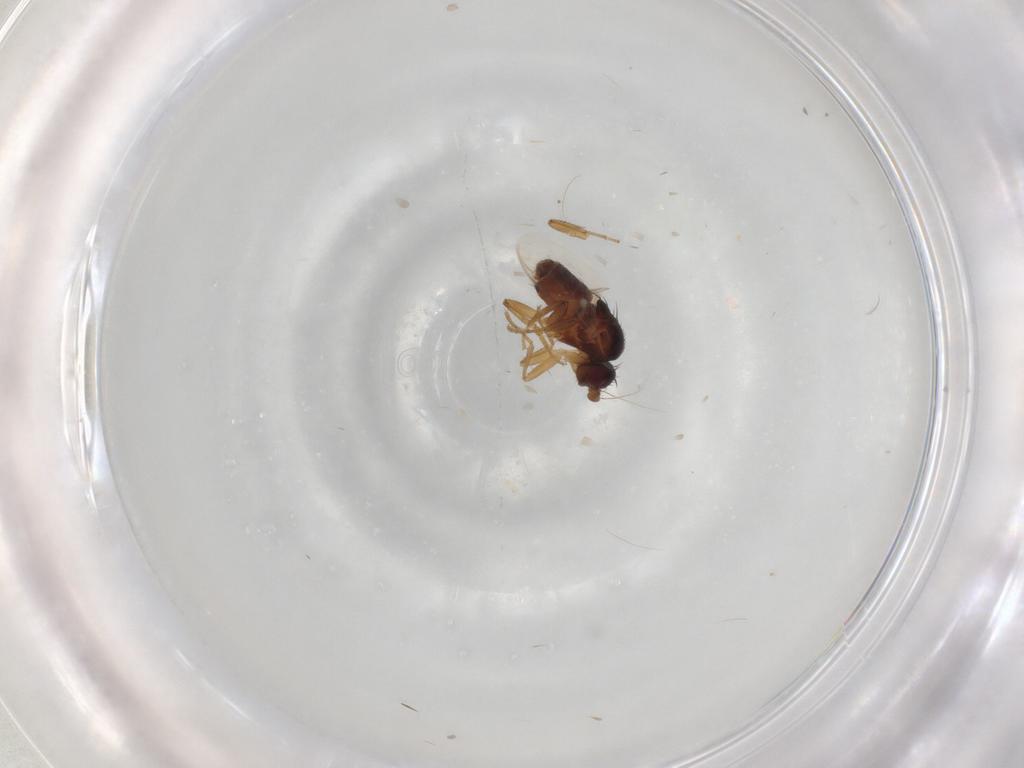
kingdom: Animalia
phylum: Arthropoda
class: Insecta
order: Diptera
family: Sphaeroceridae
